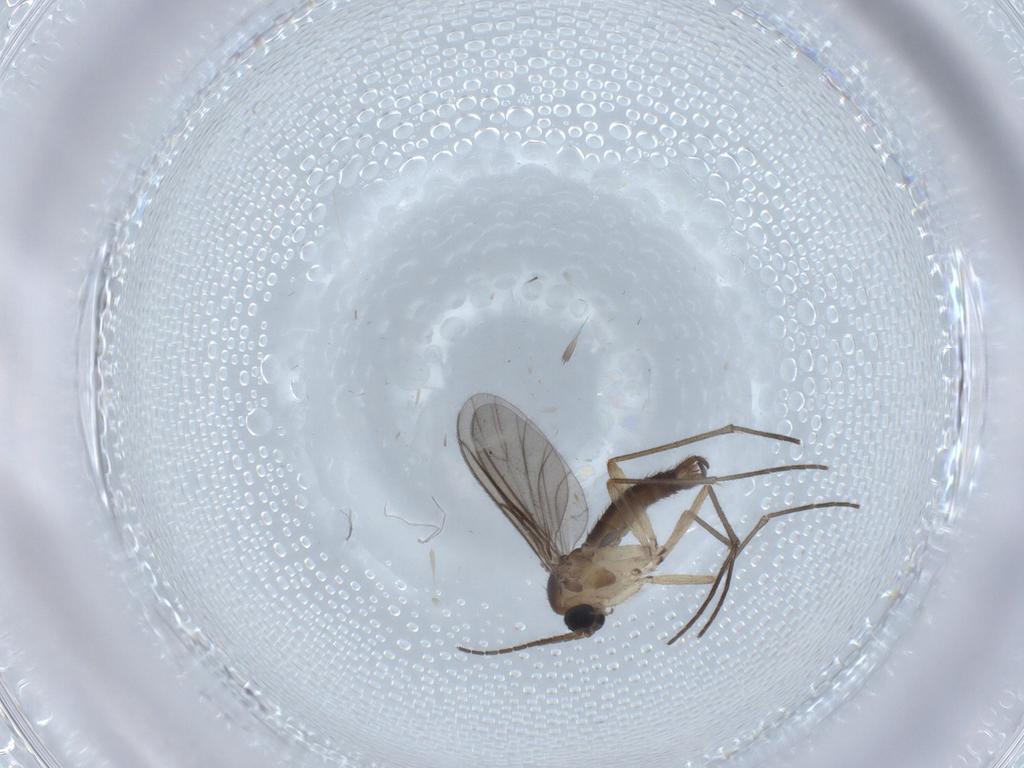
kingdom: Animalia
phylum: Arthropoda
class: Insecta
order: Diptera
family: Sciaridae
